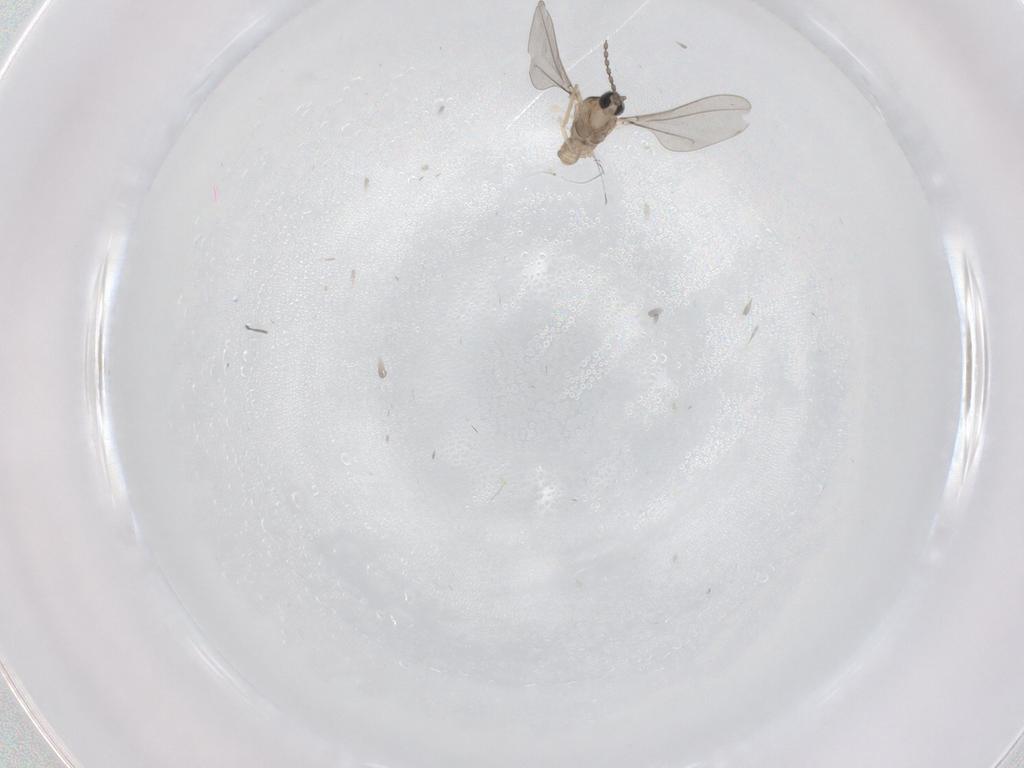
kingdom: Animalia
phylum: Arthropoda
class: Insecta
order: Diptera
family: Ceratopogonidae
